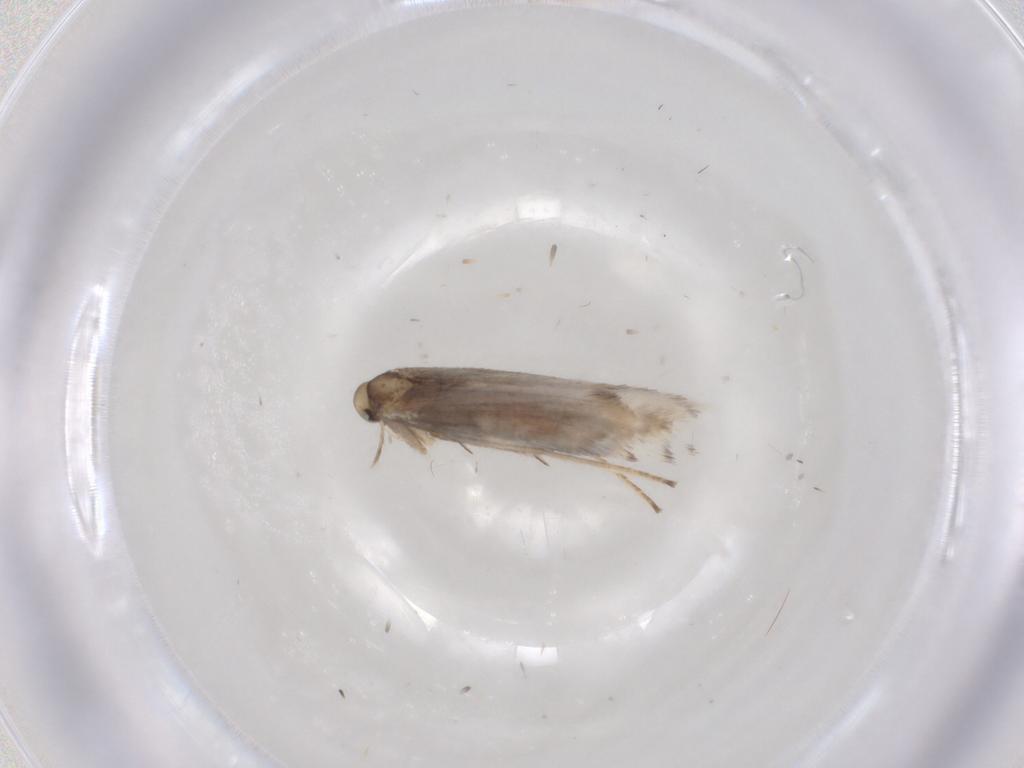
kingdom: Animalia
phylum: Arthropoda
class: Insecta
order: Lepidoptera
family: Gracillariidae
